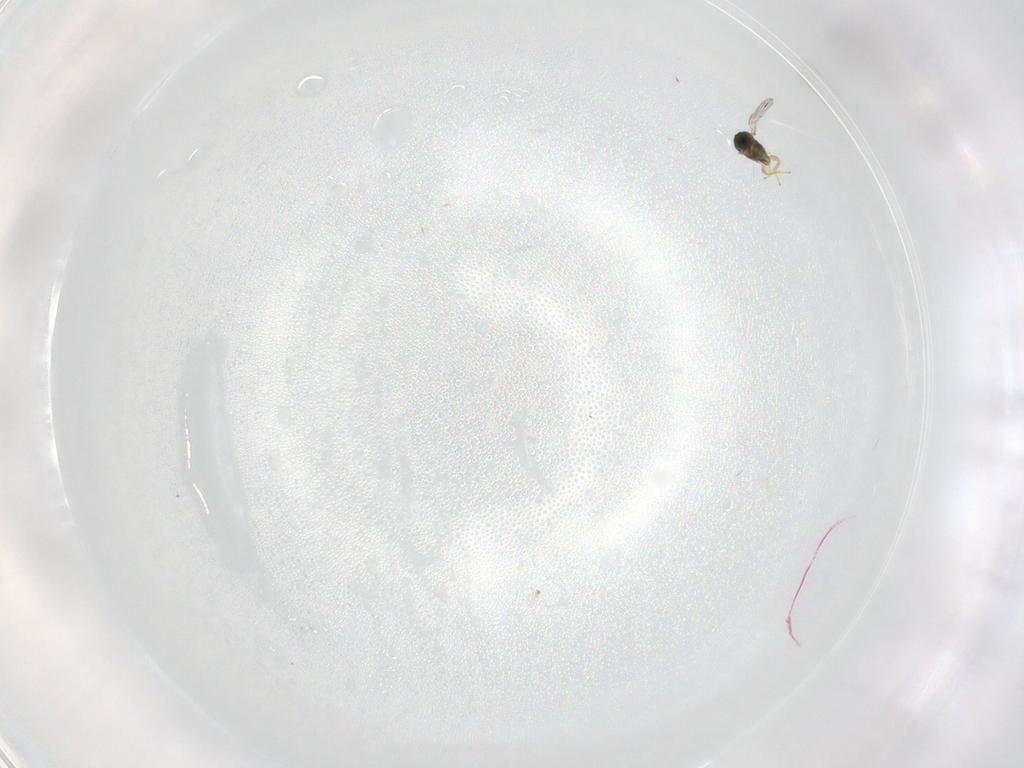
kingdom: Animalia
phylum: Arthropoda
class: Insecta
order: Hymenoptera
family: Encyrtidae
